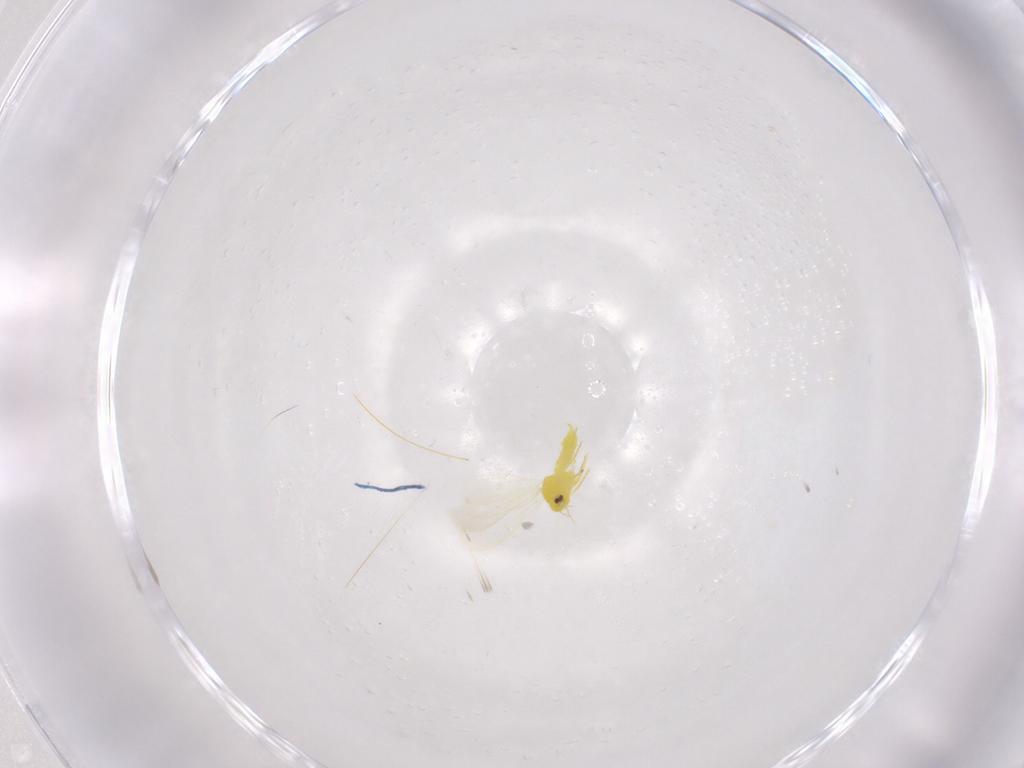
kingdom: Animalia
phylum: Arthropoda
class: Insecta
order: Hemiptera
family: Aleyrodidae
